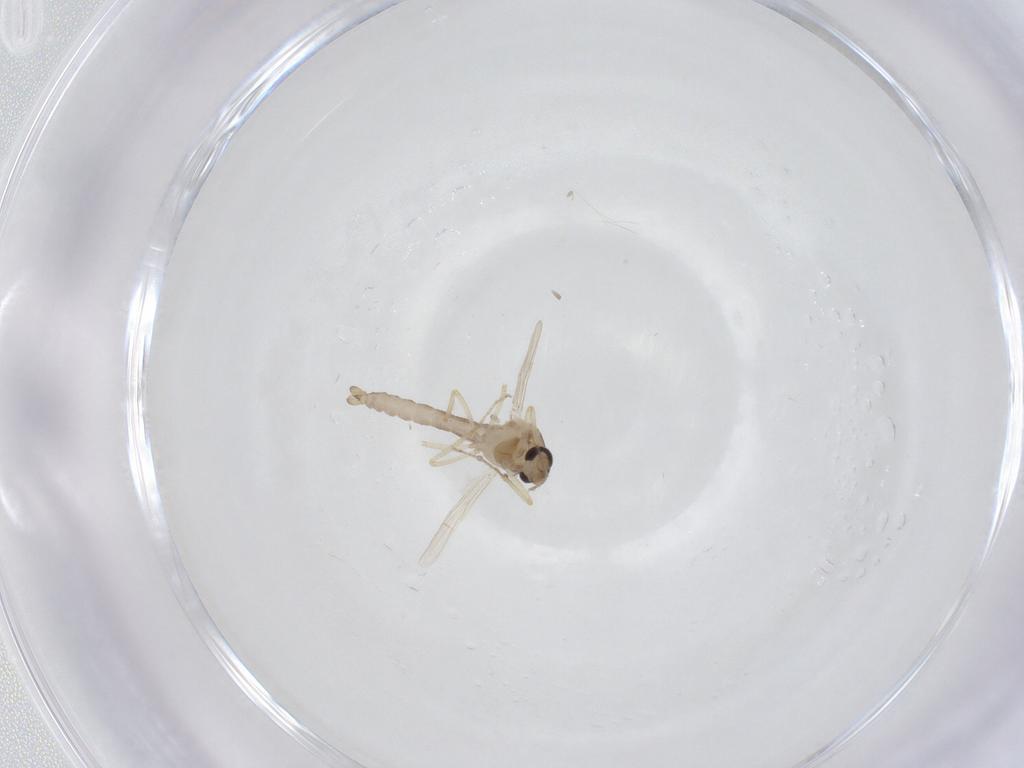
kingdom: Animalia
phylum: Arthropoda
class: Insecta
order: Diptera
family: Ceratopogonidae
